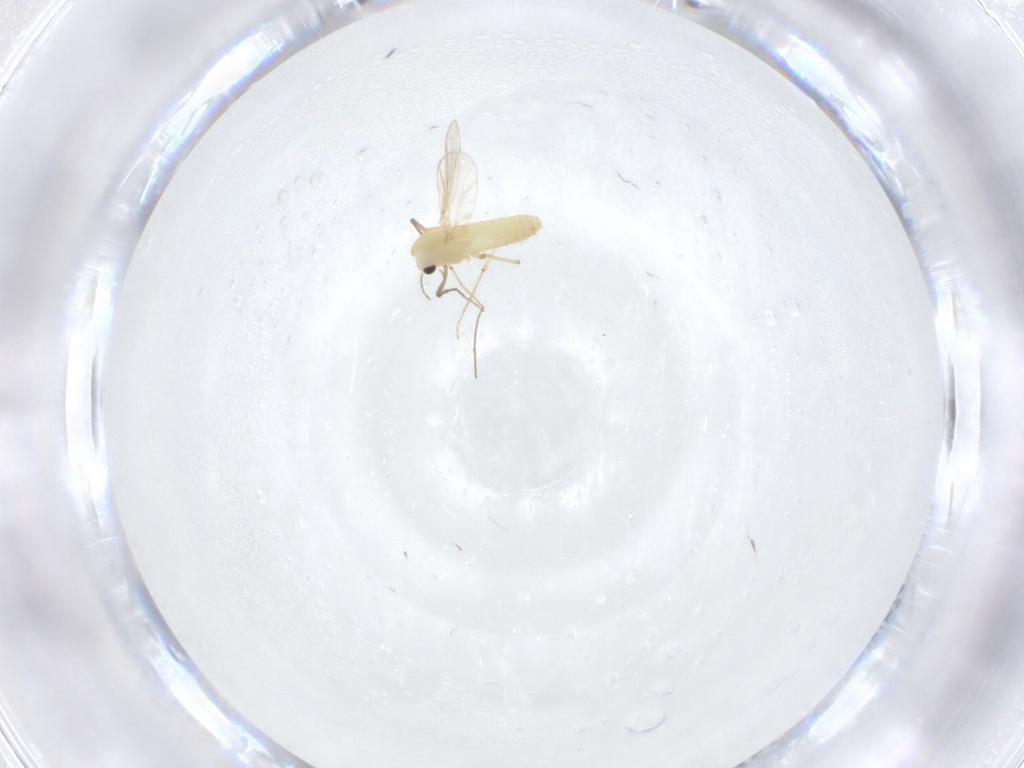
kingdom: Animalia
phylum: Arthropoda
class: Insecta
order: Diptera
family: Chironomidae
